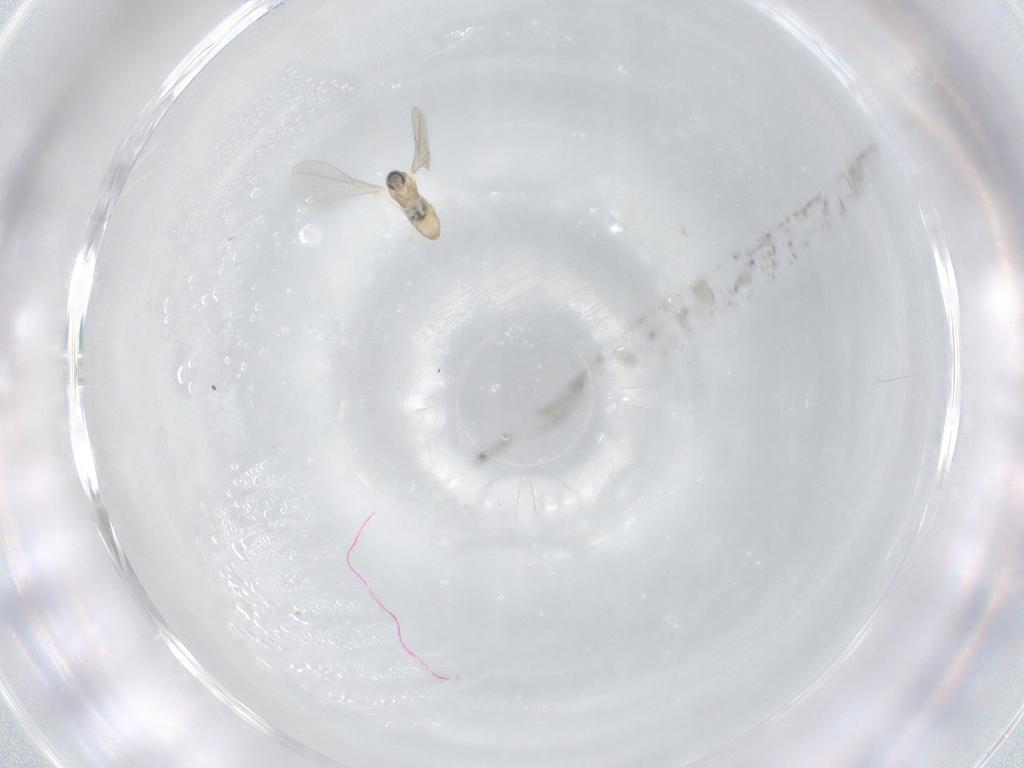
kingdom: Animalia
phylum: Arthropoda
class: Insecta
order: Diptera
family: Cecidomyiidae
